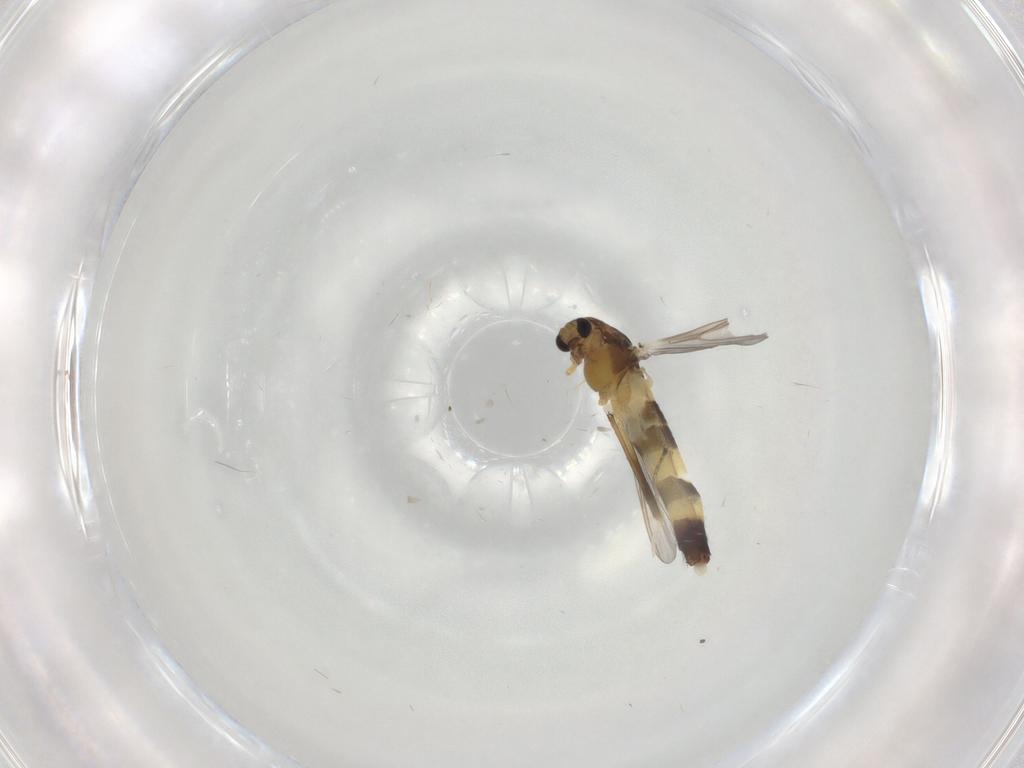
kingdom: Animalia
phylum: Arthropoda
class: Insecta
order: Diptera
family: Chironomidae
